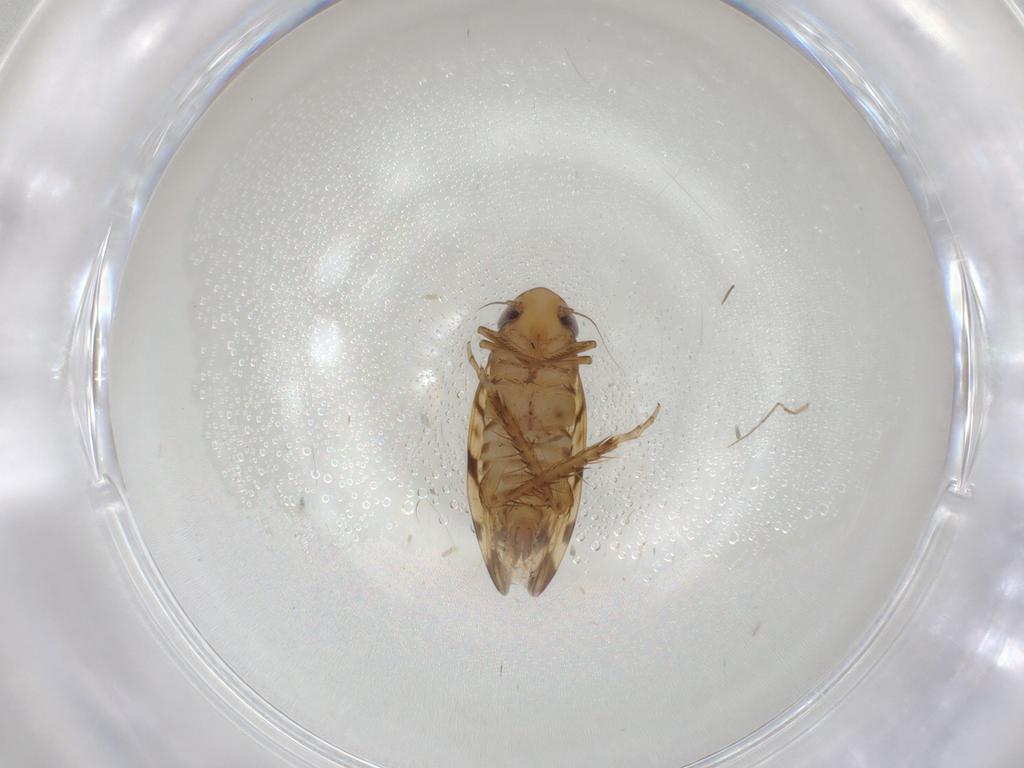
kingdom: Animalia
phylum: Arthropoda
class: Insecta
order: Hemiptera
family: Cicadellidae
